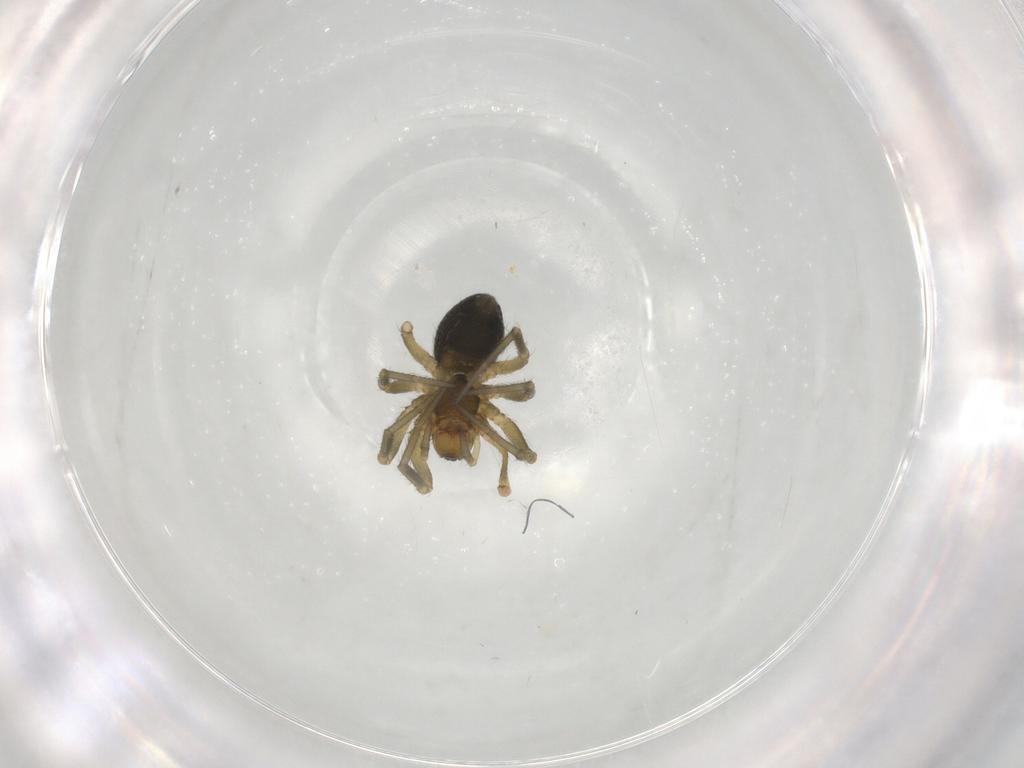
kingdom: Animalia
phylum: Arthropoda
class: Arachnida
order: Araneae
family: Linyphiidae
